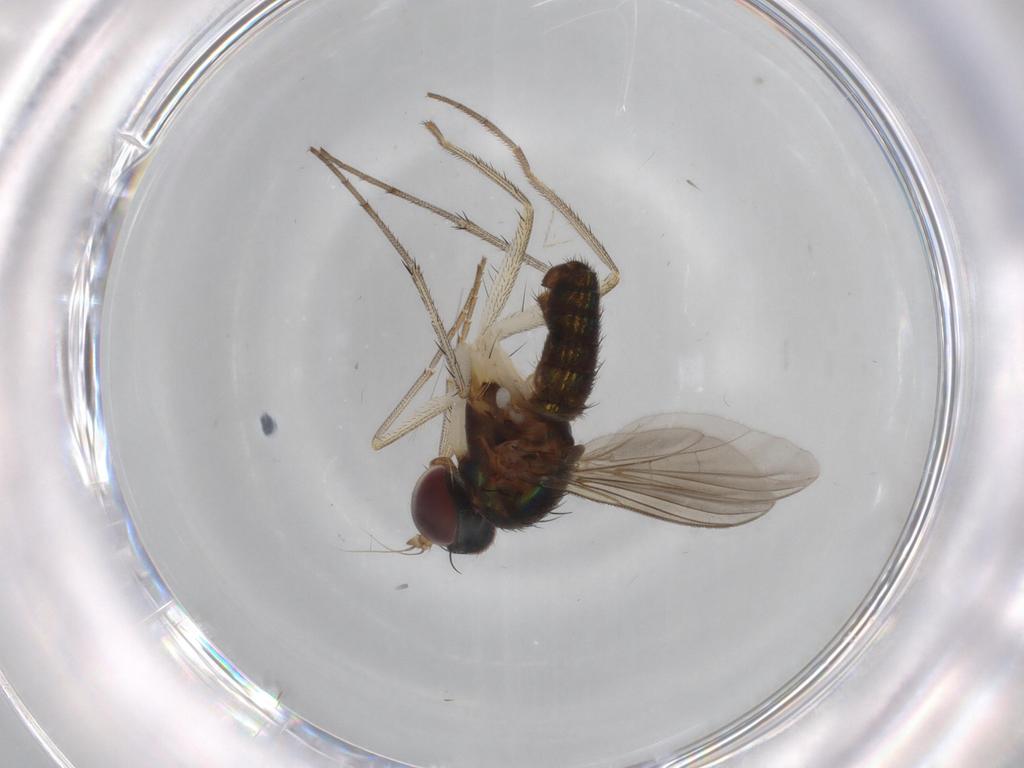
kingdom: Animalia
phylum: Arthropoda
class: Insecta
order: Diptera
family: Dolichopodidae
